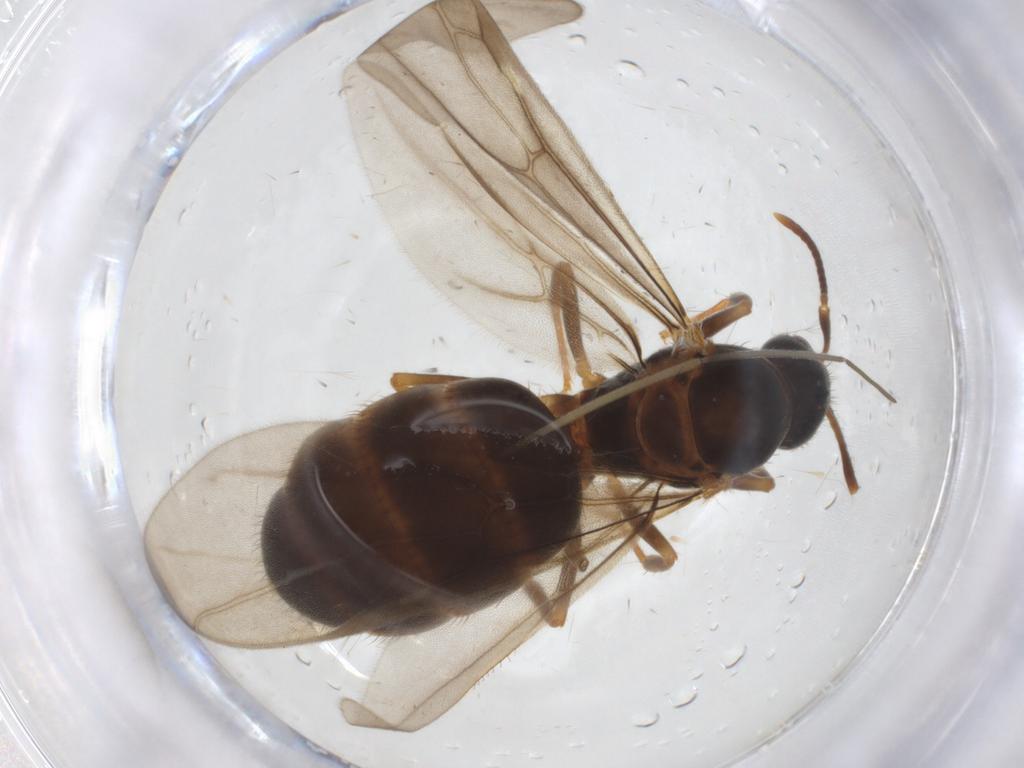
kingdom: Animalia
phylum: Arthropoda
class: Insecta
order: Hymenoptera
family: Formicidae
